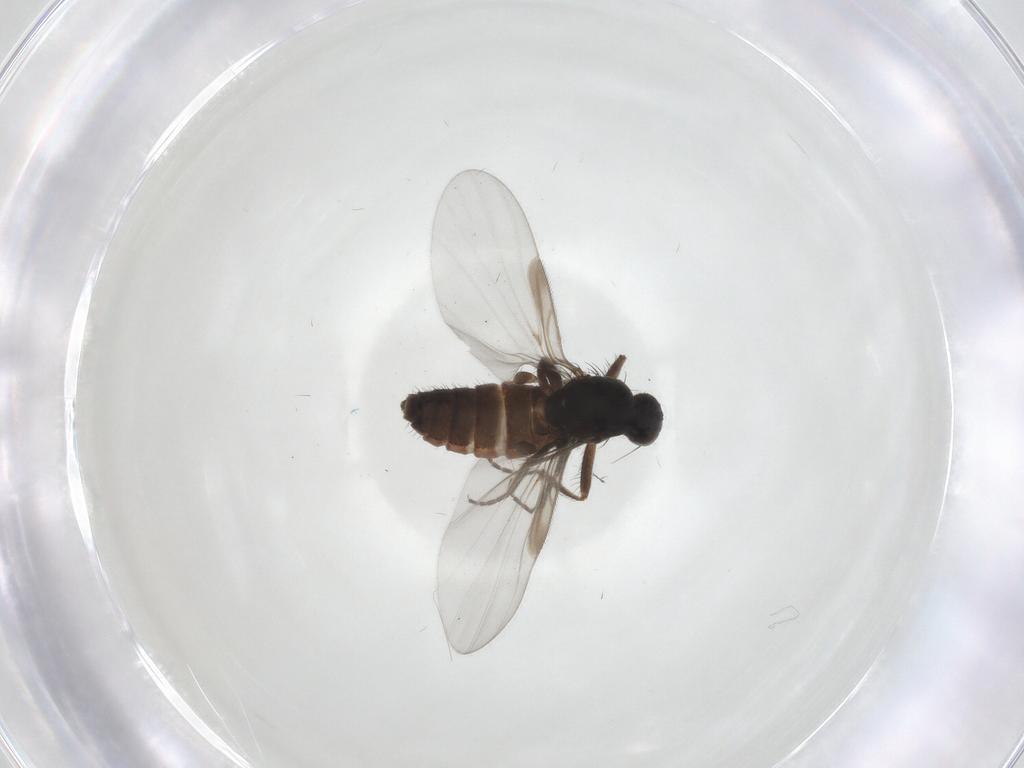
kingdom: Animalia
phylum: Arthropoda
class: Insecta
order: Diptera
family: Platypezidae
